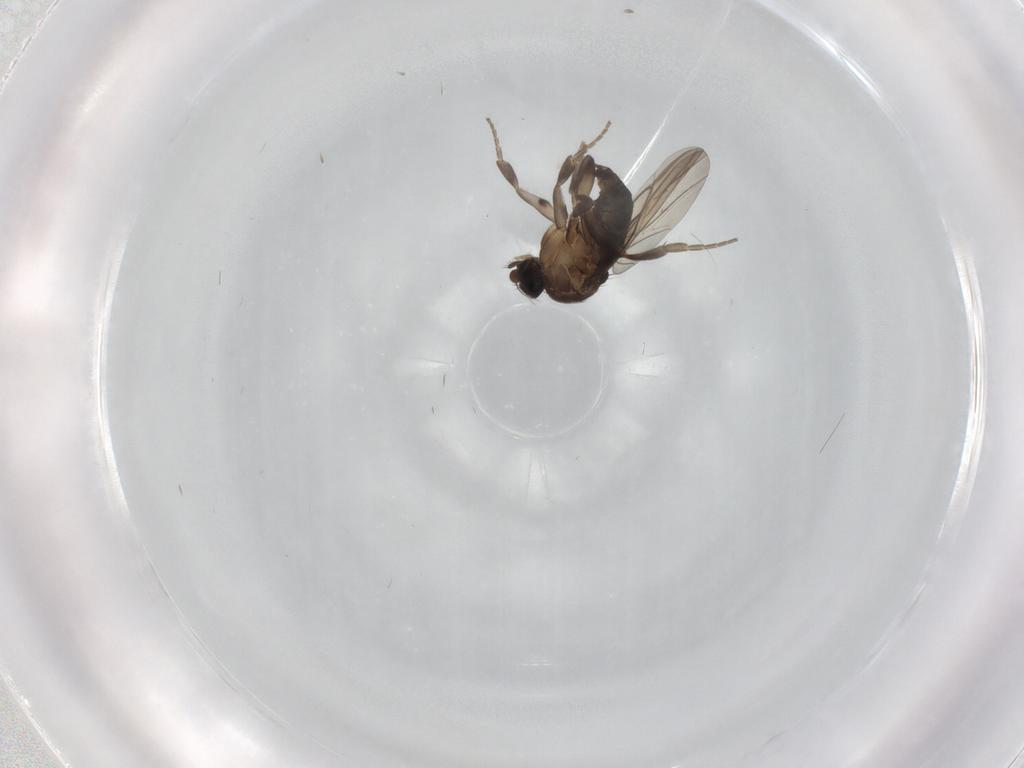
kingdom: Animalia
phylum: Arthropoda
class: Insecta
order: Diptera
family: Phoridae
